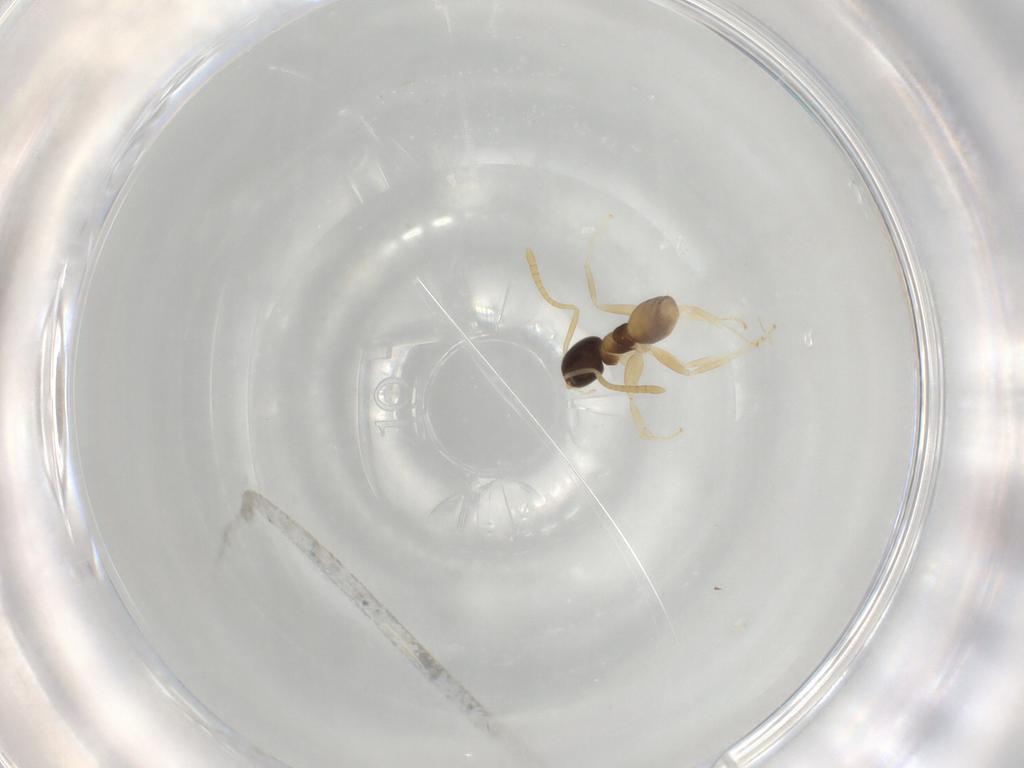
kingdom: Animalia
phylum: Arthropoda
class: Insecta
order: Hymenoptera
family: Formicidae
